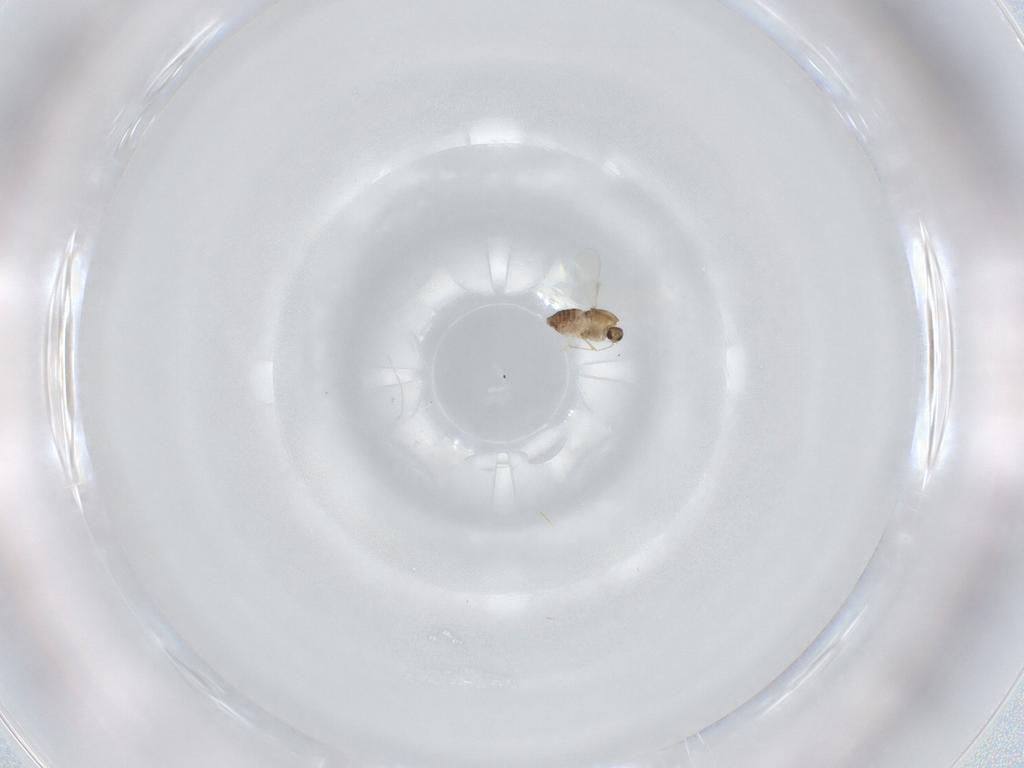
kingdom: Animalia
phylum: Arthropoda
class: Insecta
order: Diptera
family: Chironomidae
